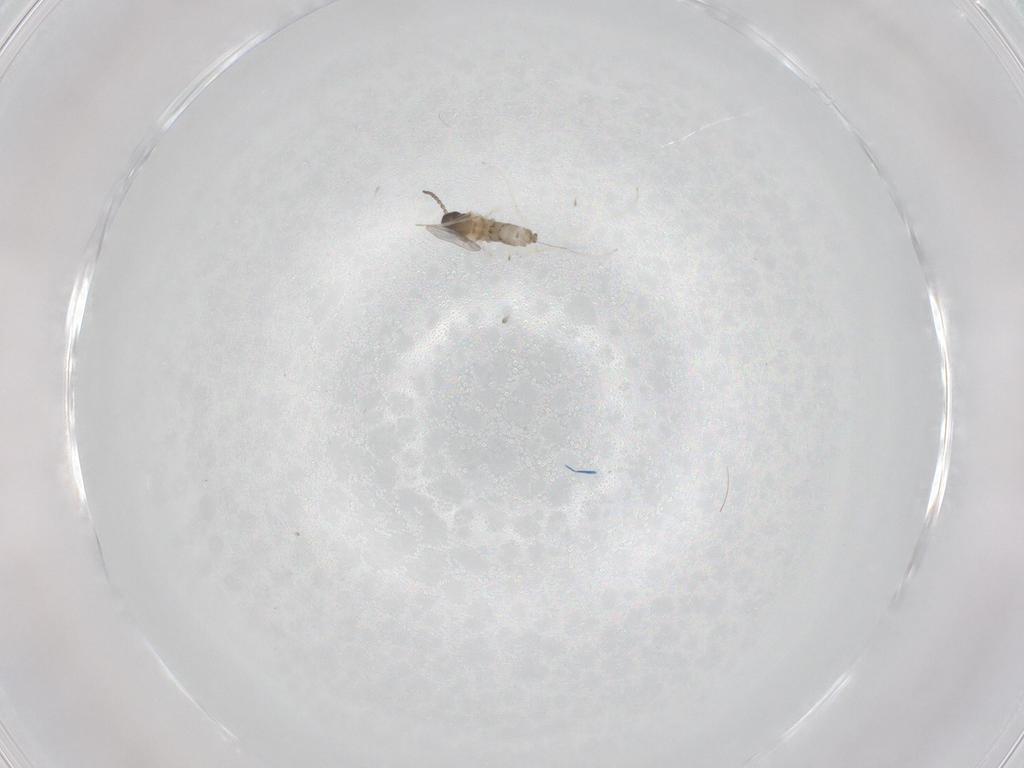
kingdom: Animalia
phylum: Arthropoda
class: Insecta
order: Diptera
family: Cecidomyiidae
